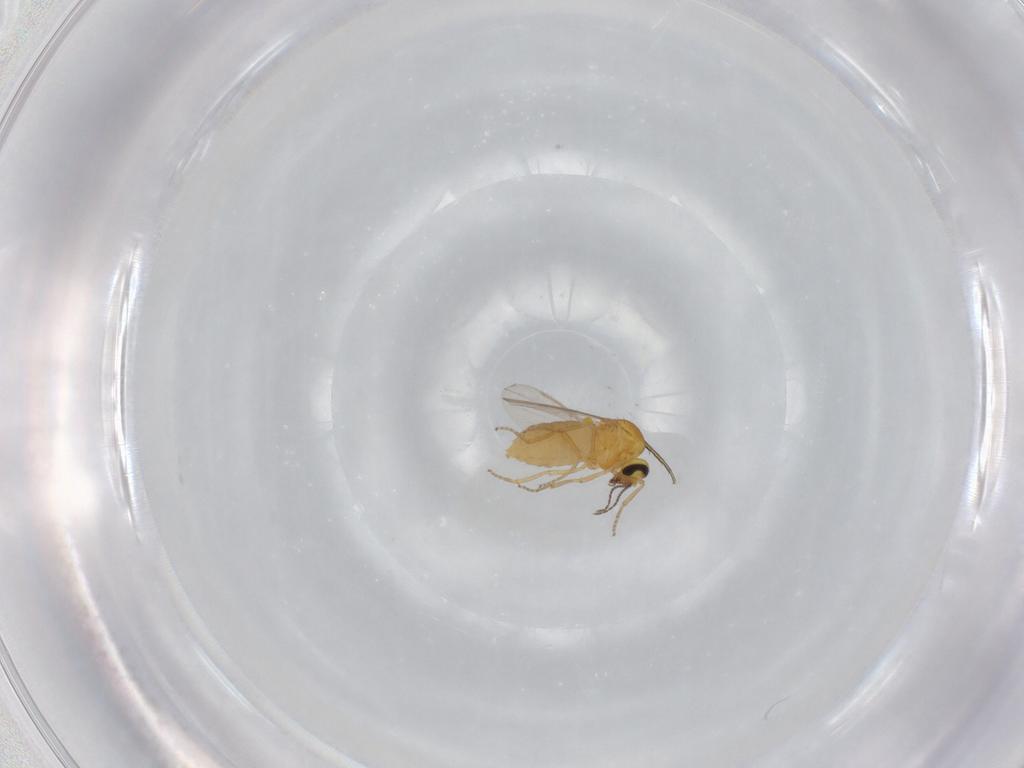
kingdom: Animalia
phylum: Arthropoda
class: Insecta
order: Diptera
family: Ceratopogonidae
